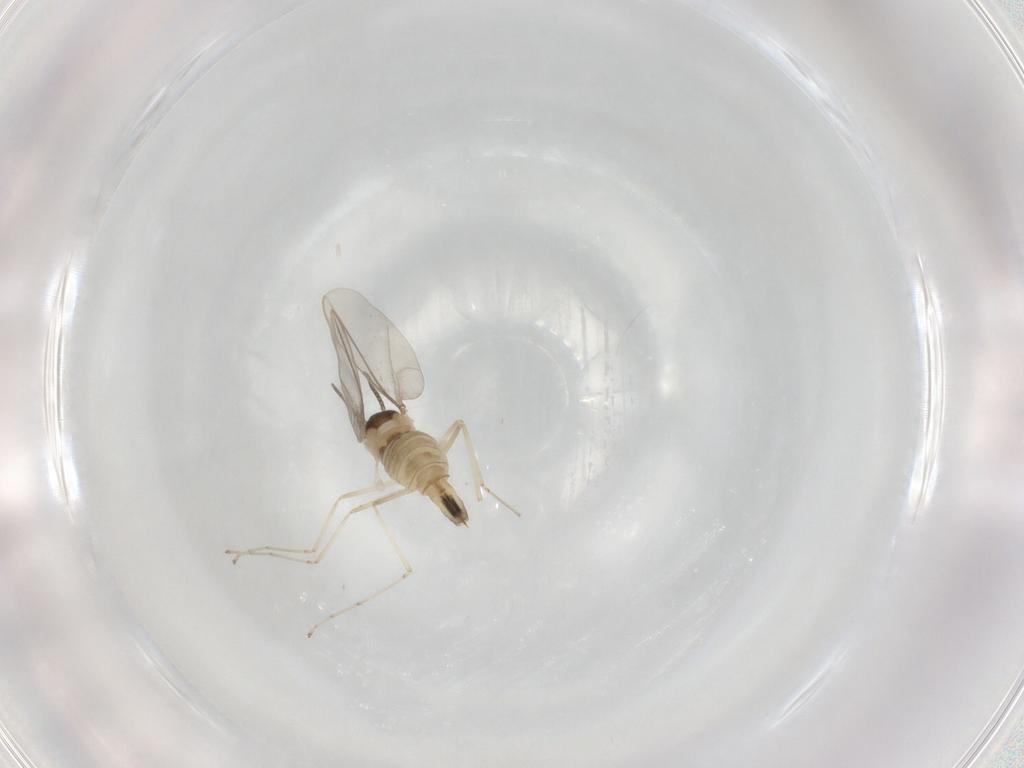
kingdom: Animalia
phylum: Arthropoda
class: Insecta
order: Diptera
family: Cecidomyiidae
